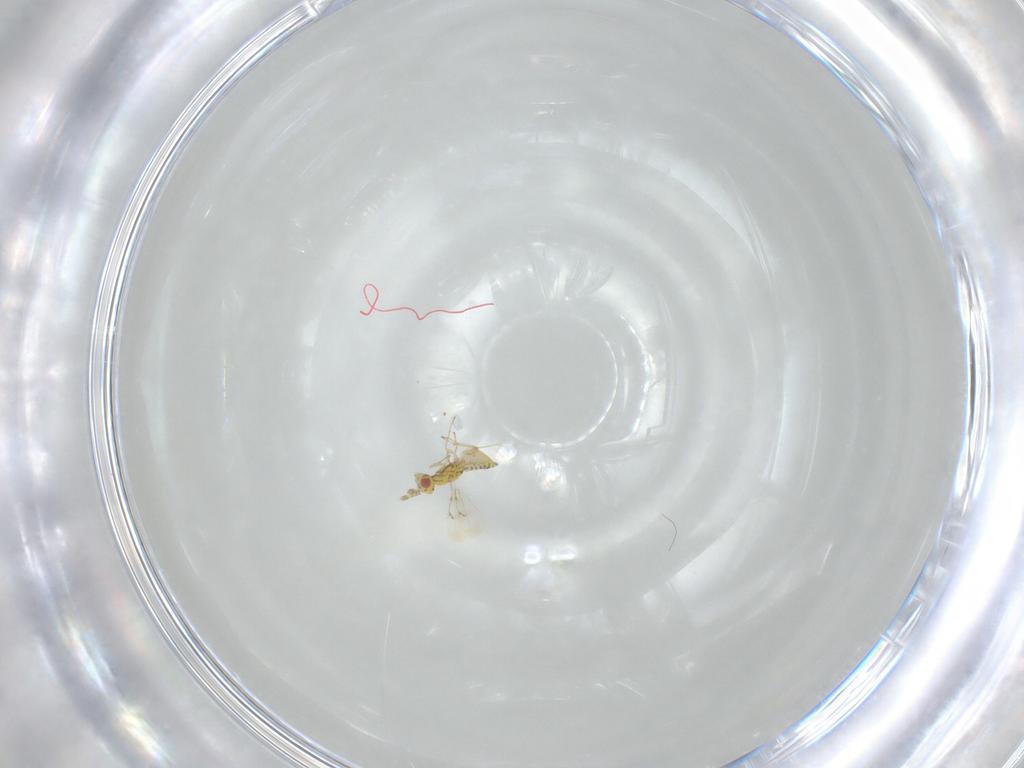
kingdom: Animalia
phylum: Arthropoda
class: Insecta
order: Hymenoptera
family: Eulophidae
